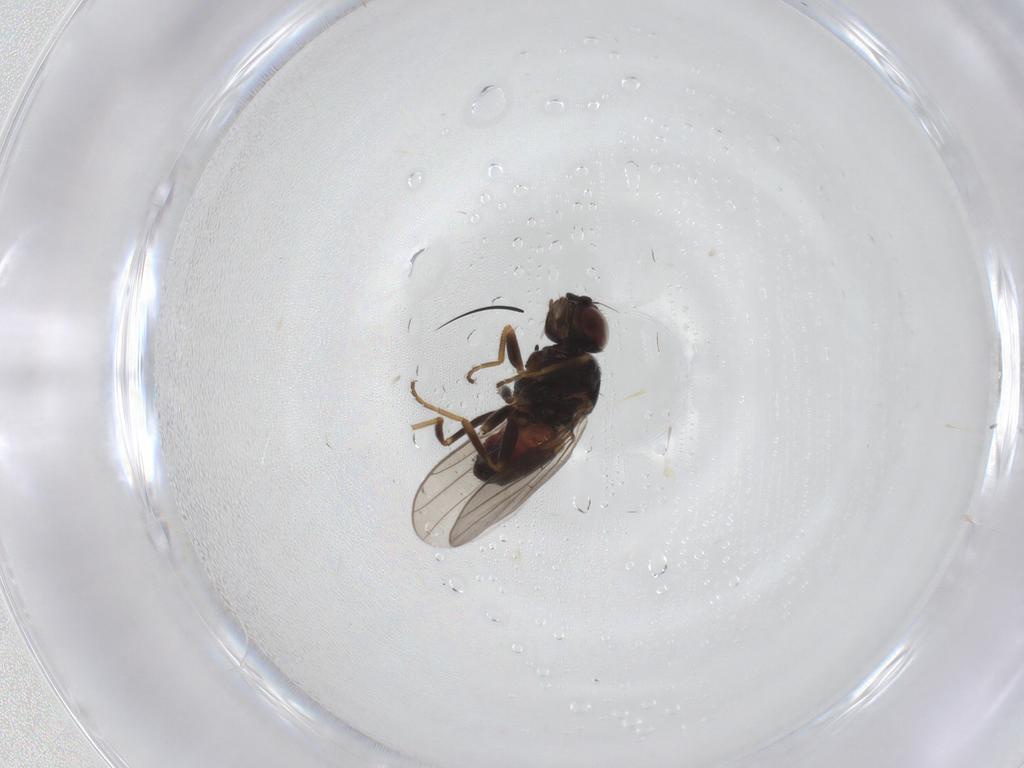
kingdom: Animalia
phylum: Arthropoda
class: Insecta
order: Diptera
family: Chloropidae
